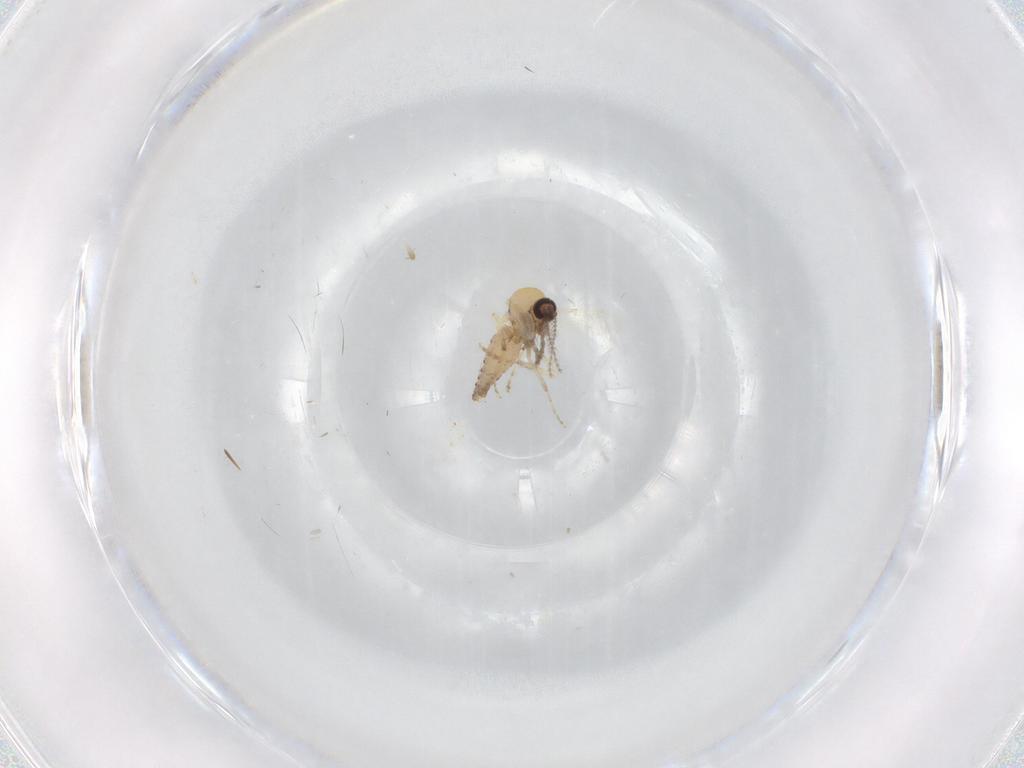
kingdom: Animalia
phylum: Arthropoda
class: Insecta
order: Diptera
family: Ceratopogonidae
